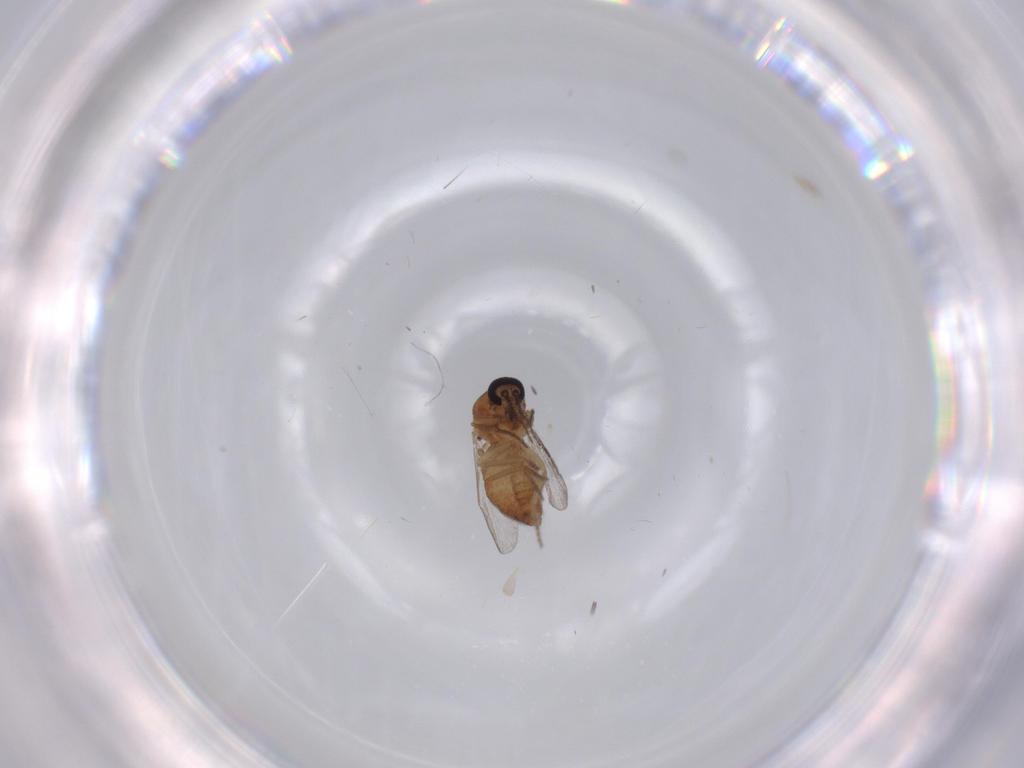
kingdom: Animalia
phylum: Arthropoda
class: Insecta
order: Diptera
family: Ceratopogonidae
